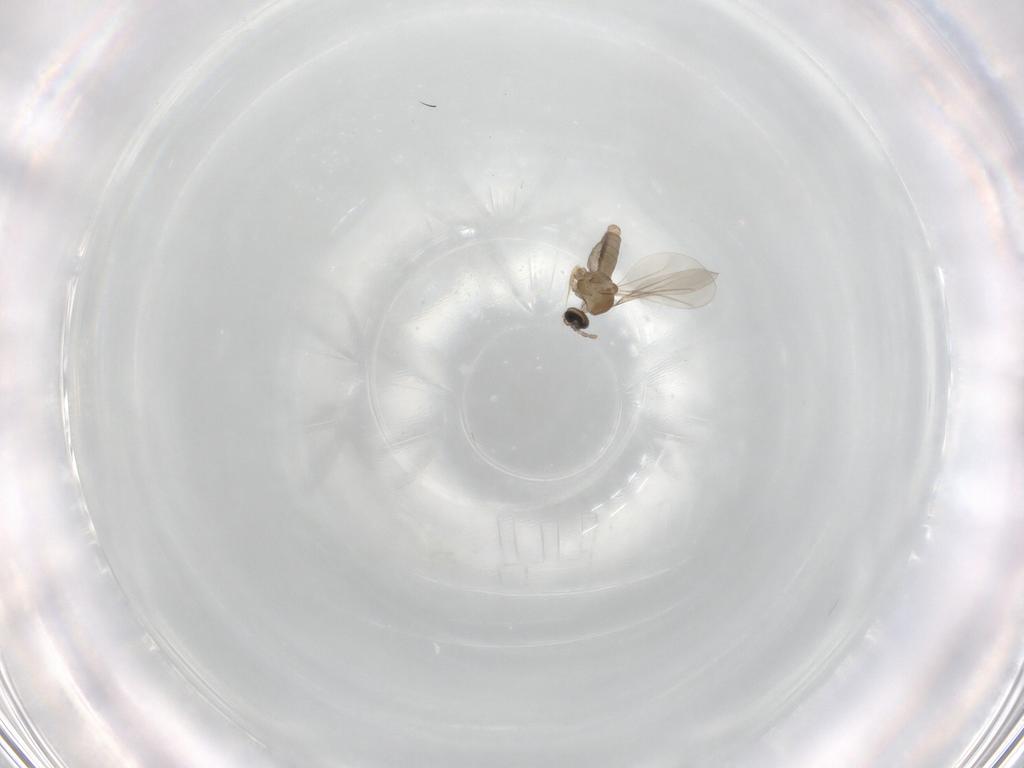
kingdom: Animalia
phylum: Arthropoda
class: Insecta
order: Diptera
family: Cecidomyiidae
